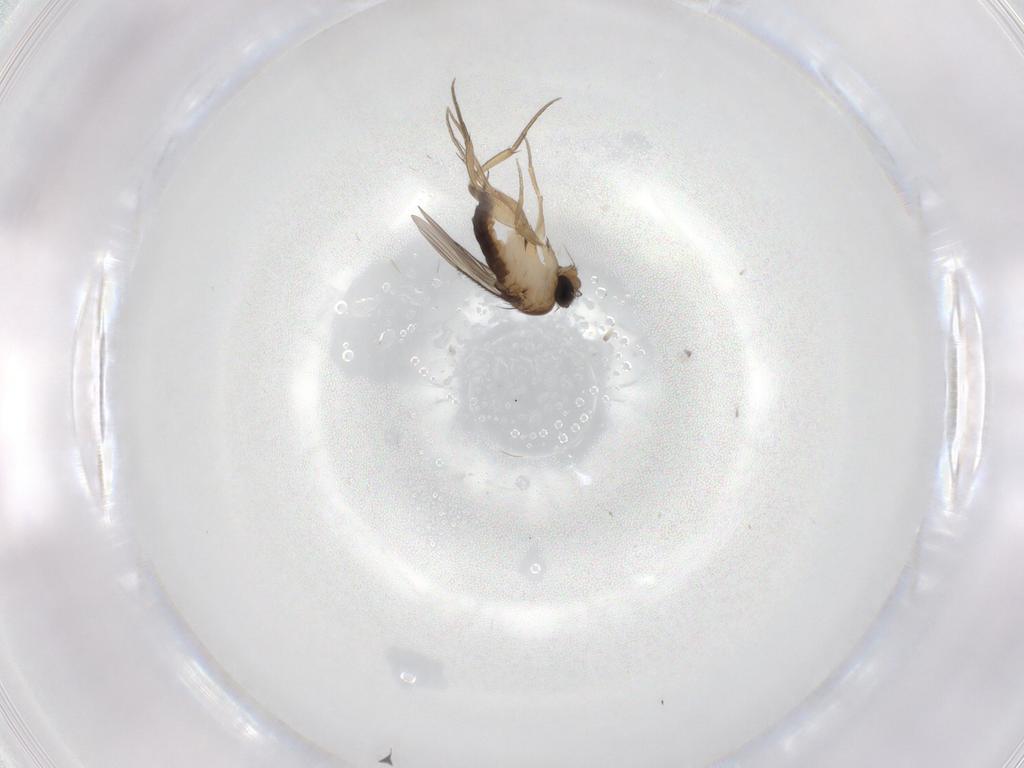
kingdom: Animalia
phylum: Arthropoda
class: Insecta
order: Diptera
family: Phoridae
